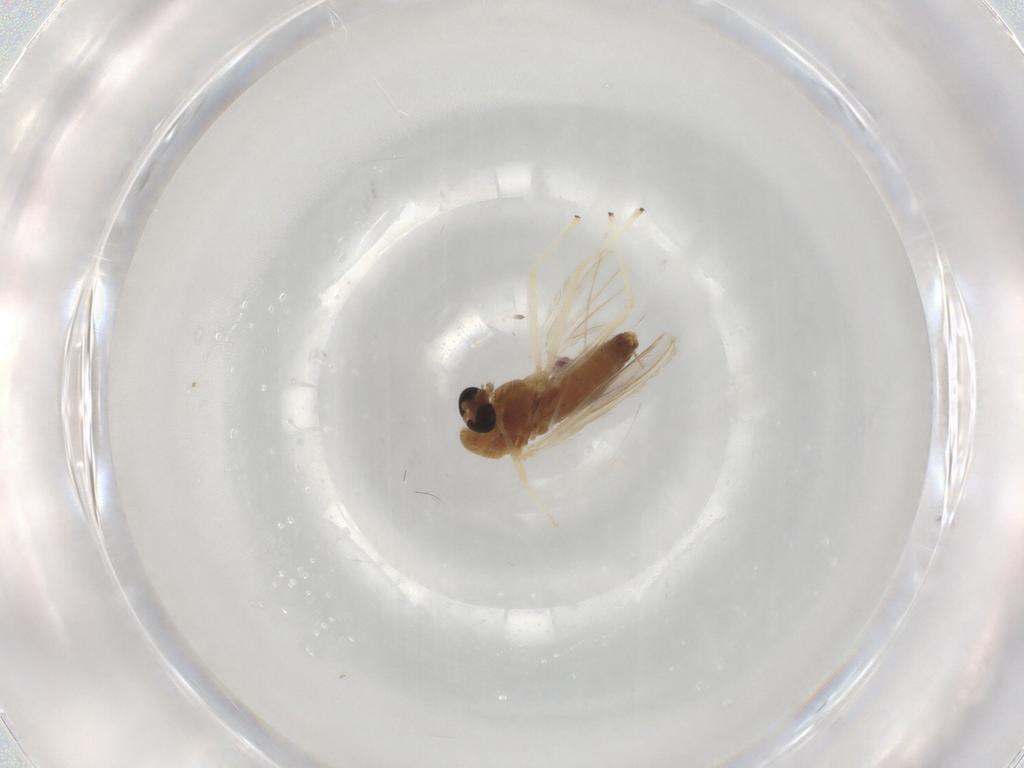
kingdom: Animalia
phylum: Arthropoda
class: Insecta
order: Diptera
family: Chironomidae
